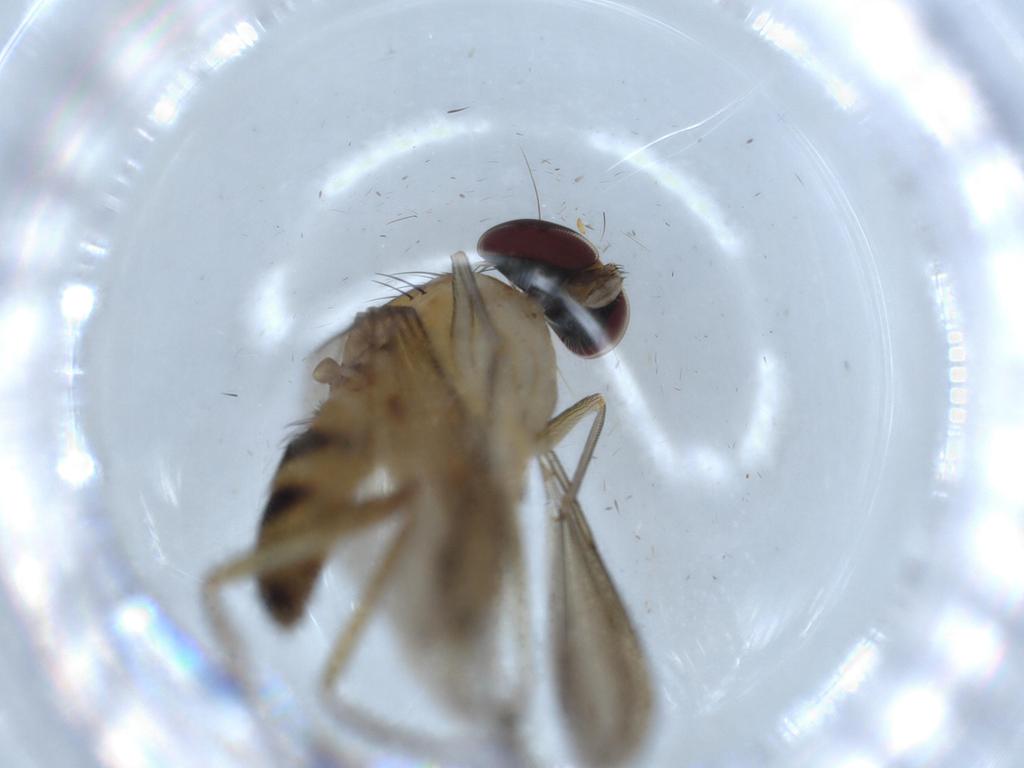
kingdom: Animalia
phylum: Arthropoda
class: Insecta
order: Diptera
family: Dolichopodidae
